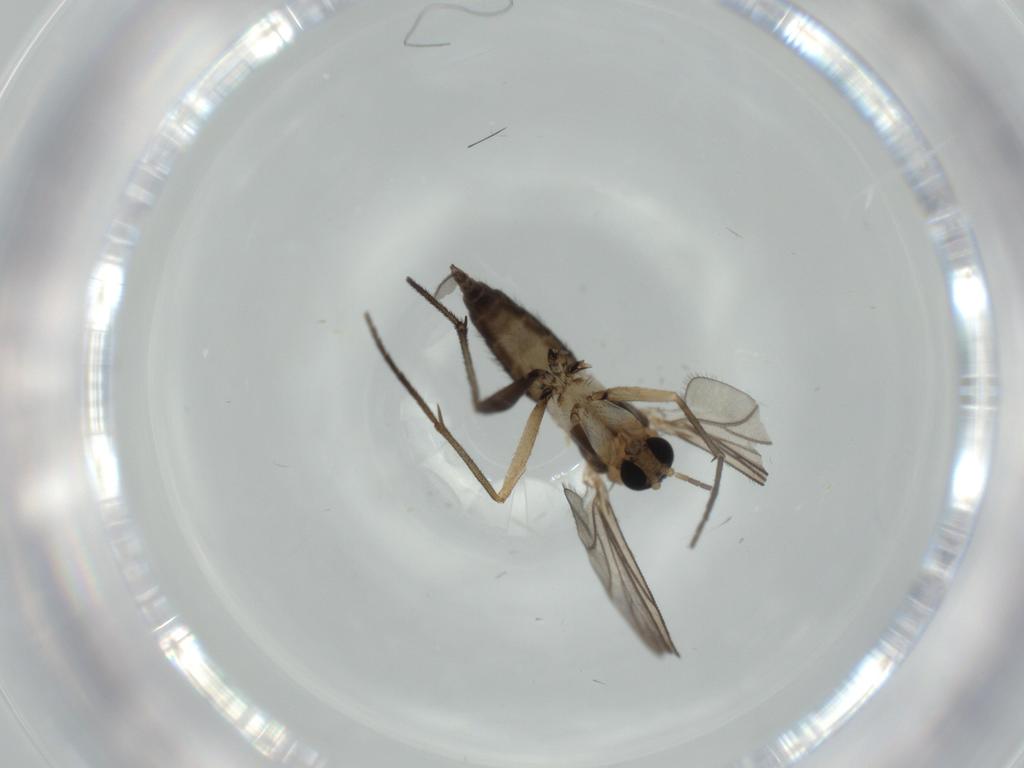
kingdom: Animalia
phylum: Arthropoda
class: Insecta
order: Diptera
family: Sciaridae
